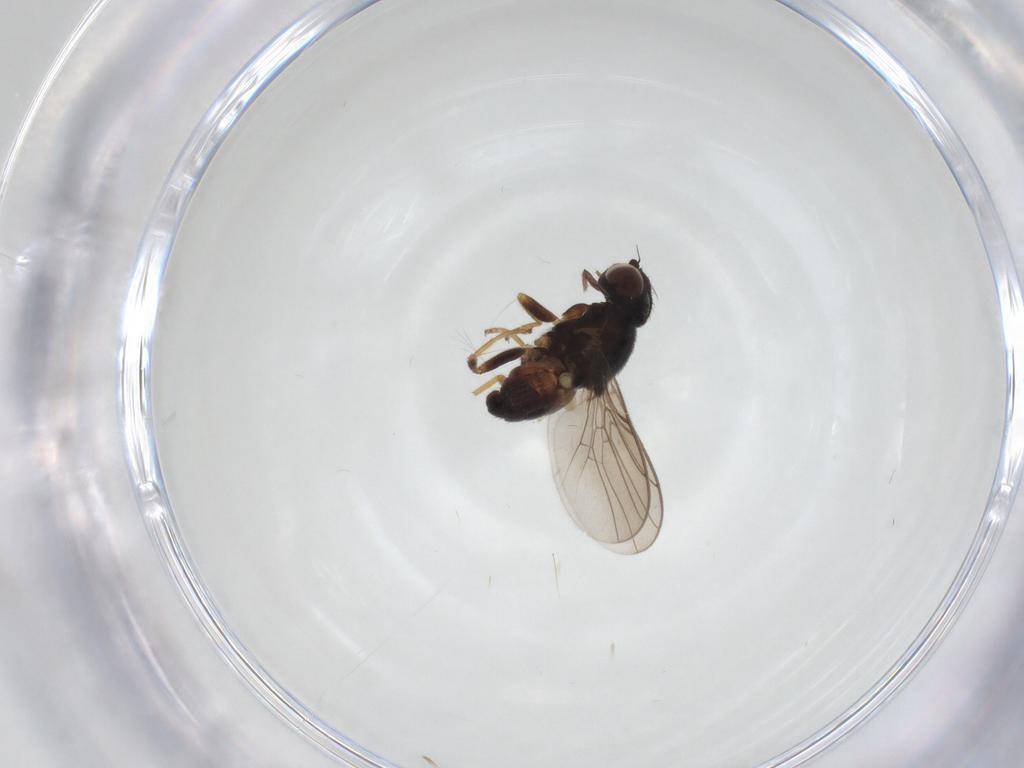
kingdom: Animalia
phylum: Arthropoda
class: Insecta
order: Diptera
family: Chloropidae
